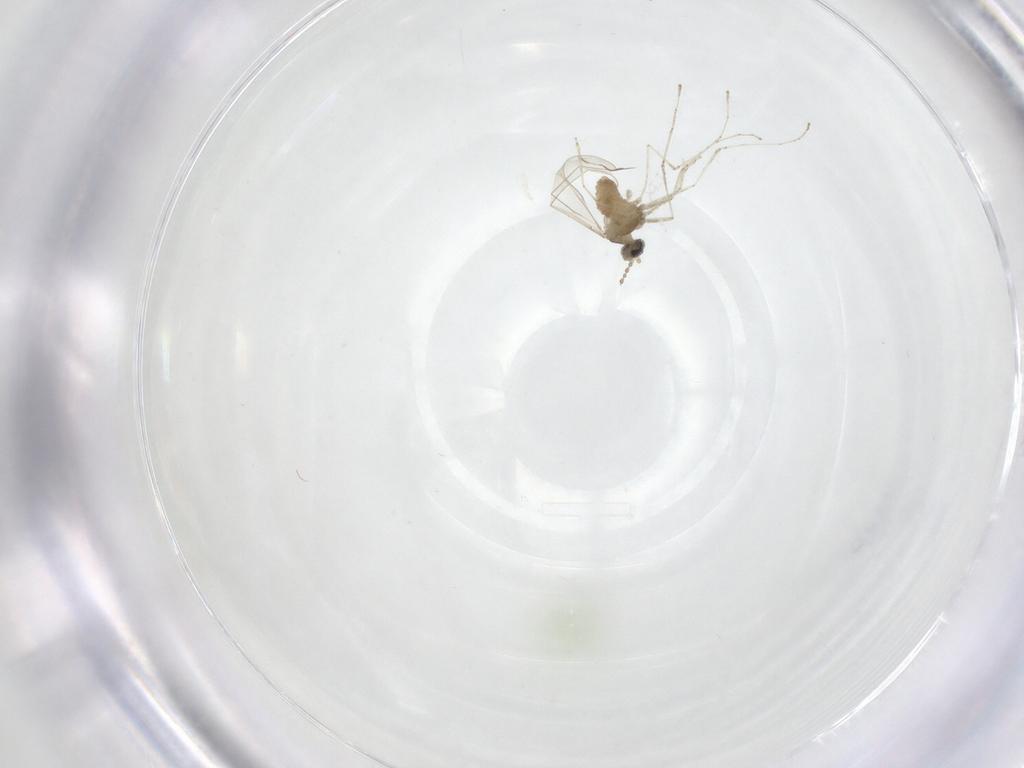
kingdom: Animalia
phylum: Arthropoda
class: Insecta
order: Diptera
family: Cecidomyiidae
